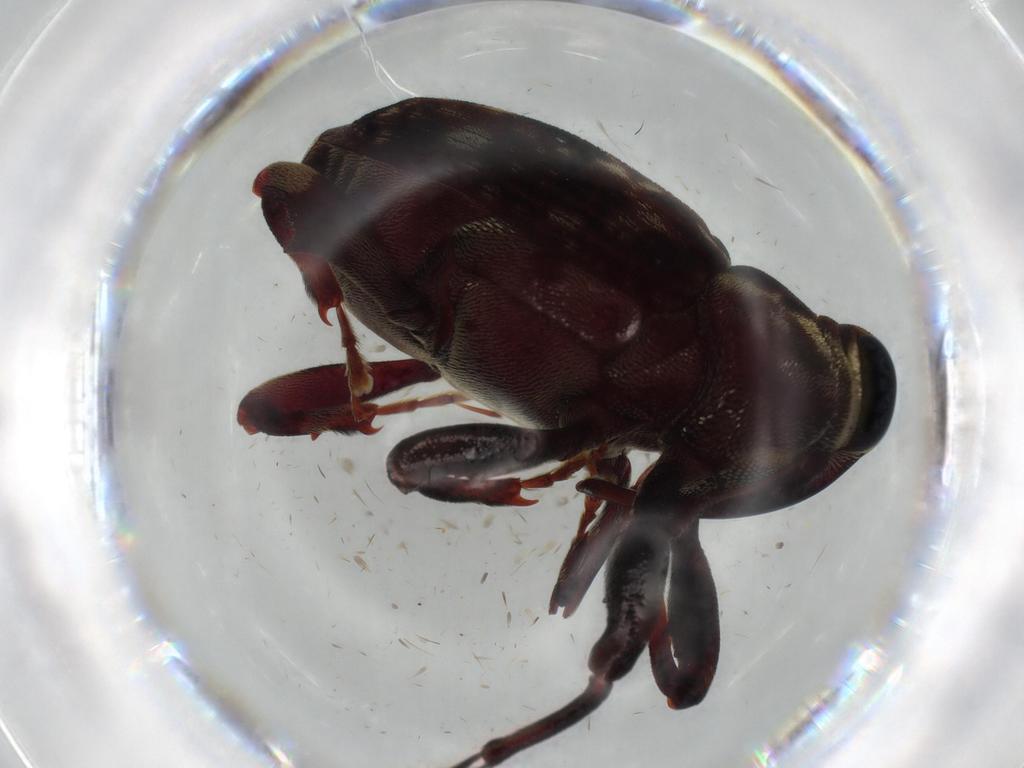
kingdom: Animalia
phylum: Arthropoda
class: Insecta
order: Coleoptera
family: Curculionidae
